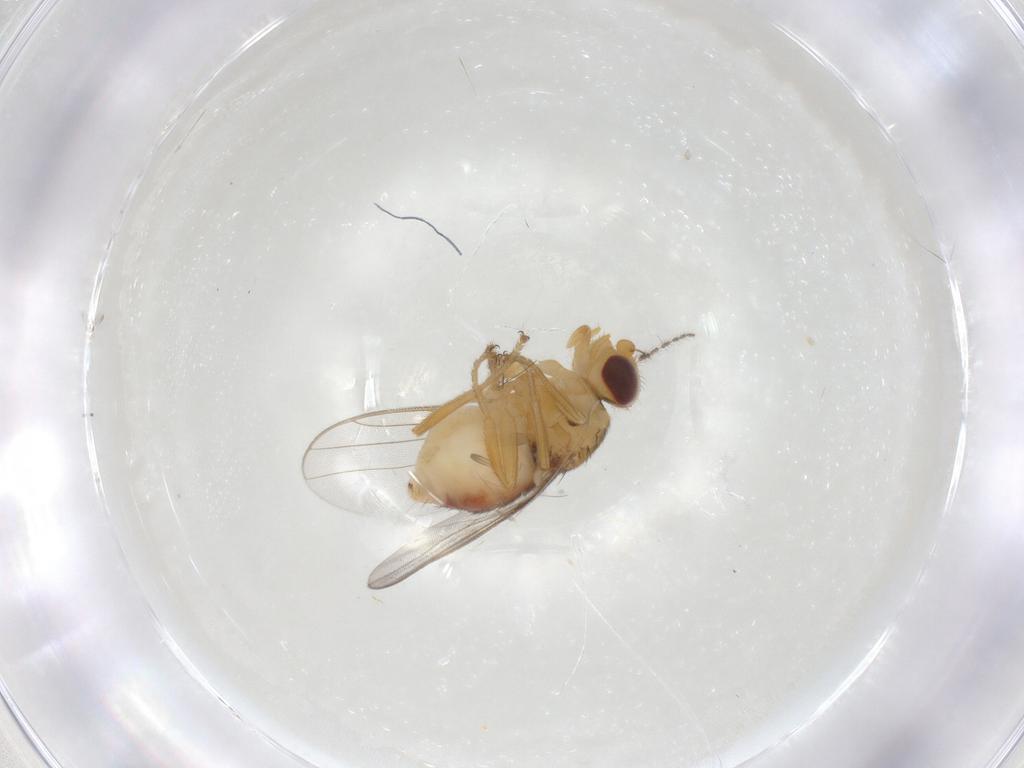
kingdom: Animalia
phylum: Arthropoda
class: Insecta
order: Diptera
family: Chloropidae
